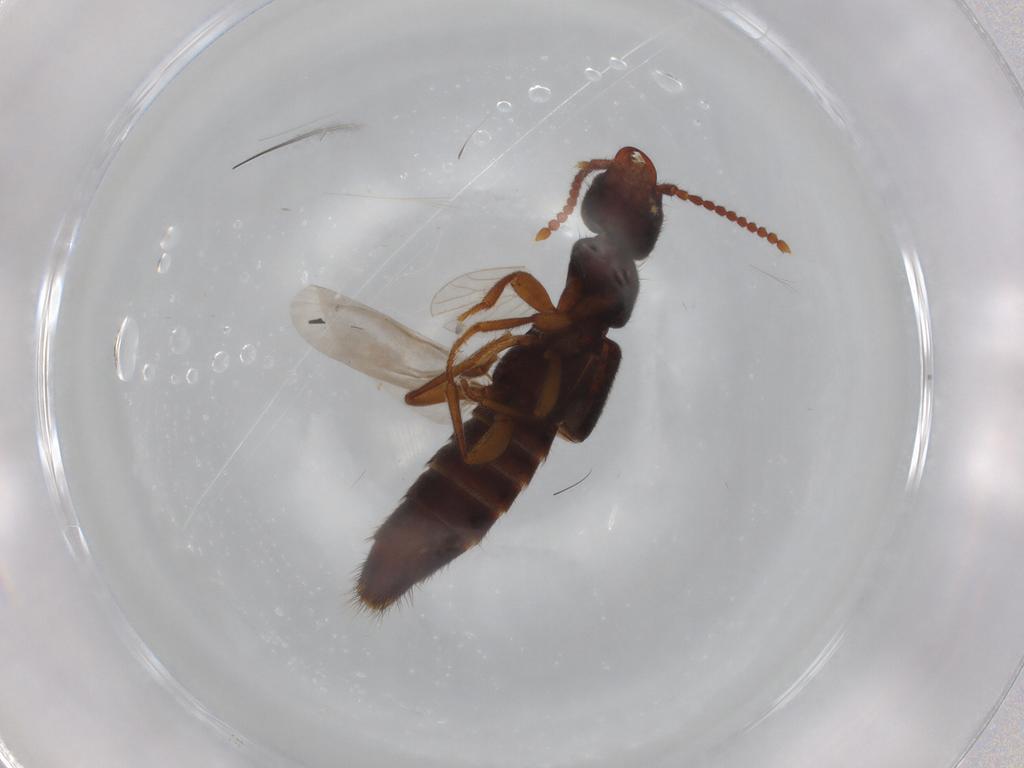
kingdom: Animalia
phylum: Arthropoda
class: Insecta
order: Coleoptera
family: Staphylinidae
